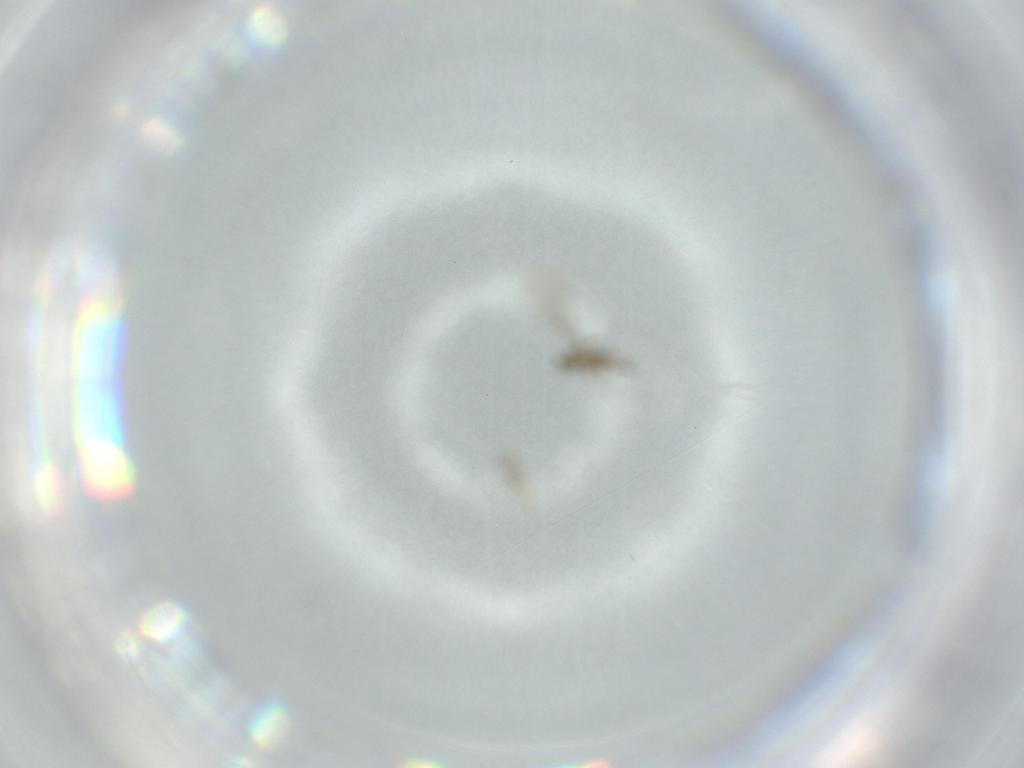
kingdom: Animalia
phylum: Arthropoda
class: Insecta
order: Diptera
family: Cecidomyiidae
